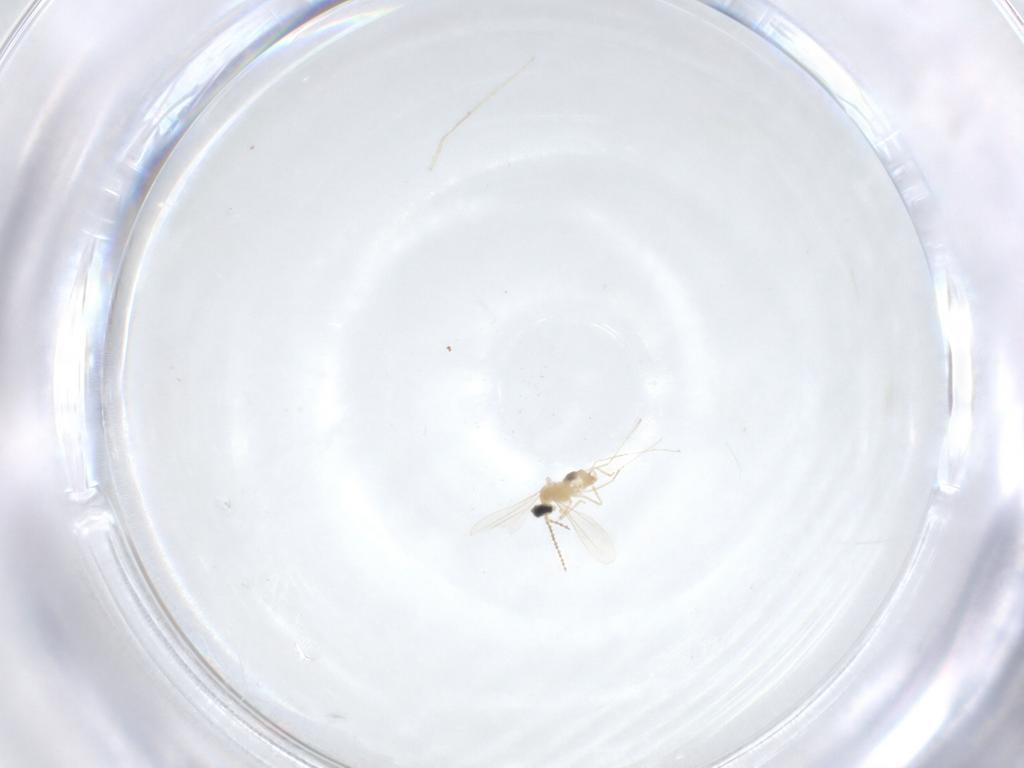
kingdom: Animalia
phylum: Arthropoda
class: Insecta
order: Diptera
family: Cecidomyiidae
